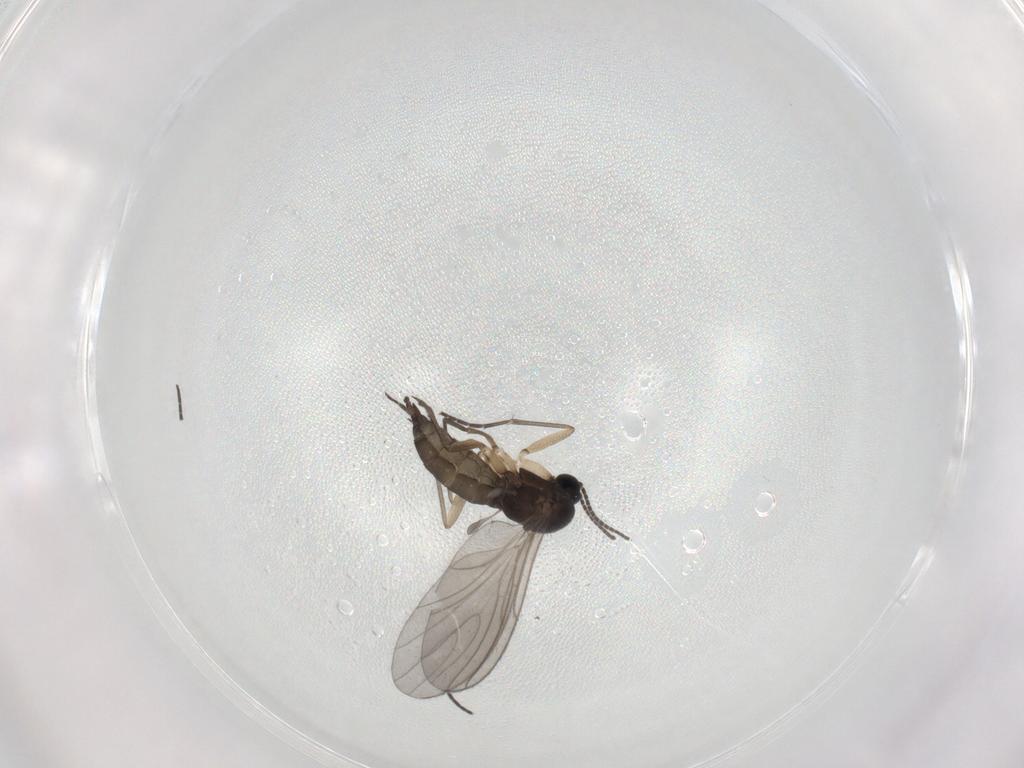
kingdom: Animalia
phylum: Arthropoda
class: Insecta
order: Diptera
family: Sciaridae
